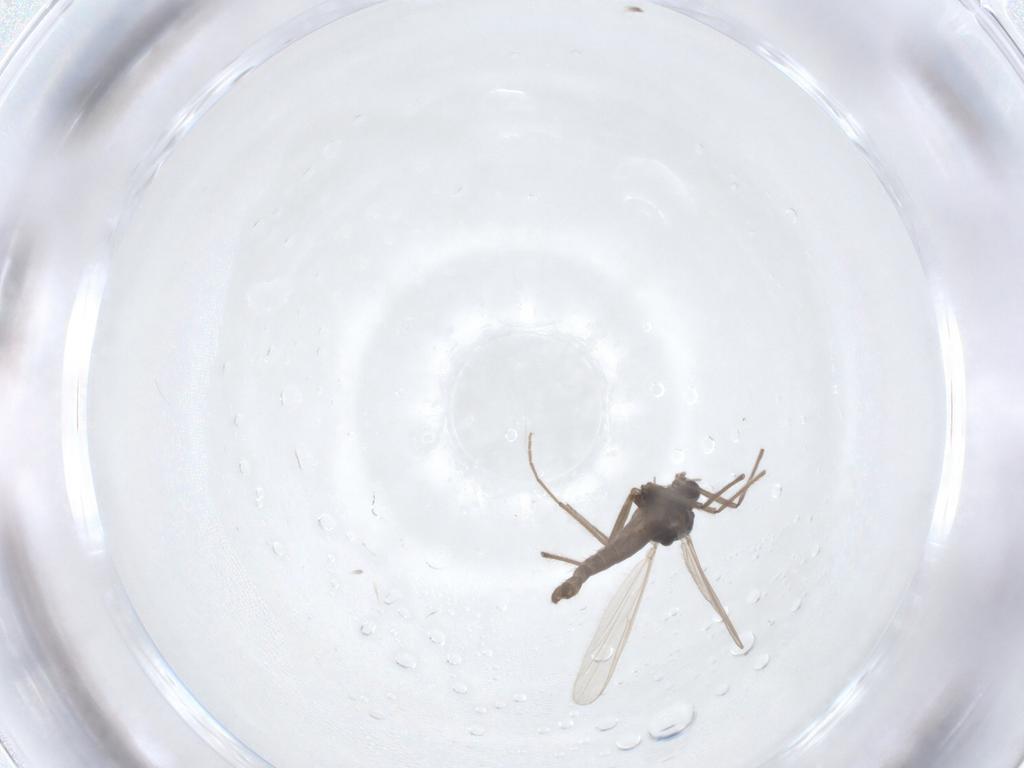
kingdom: Animalia
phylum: Arthropoda
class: Insecta
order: Diptera
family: Chironomidae
